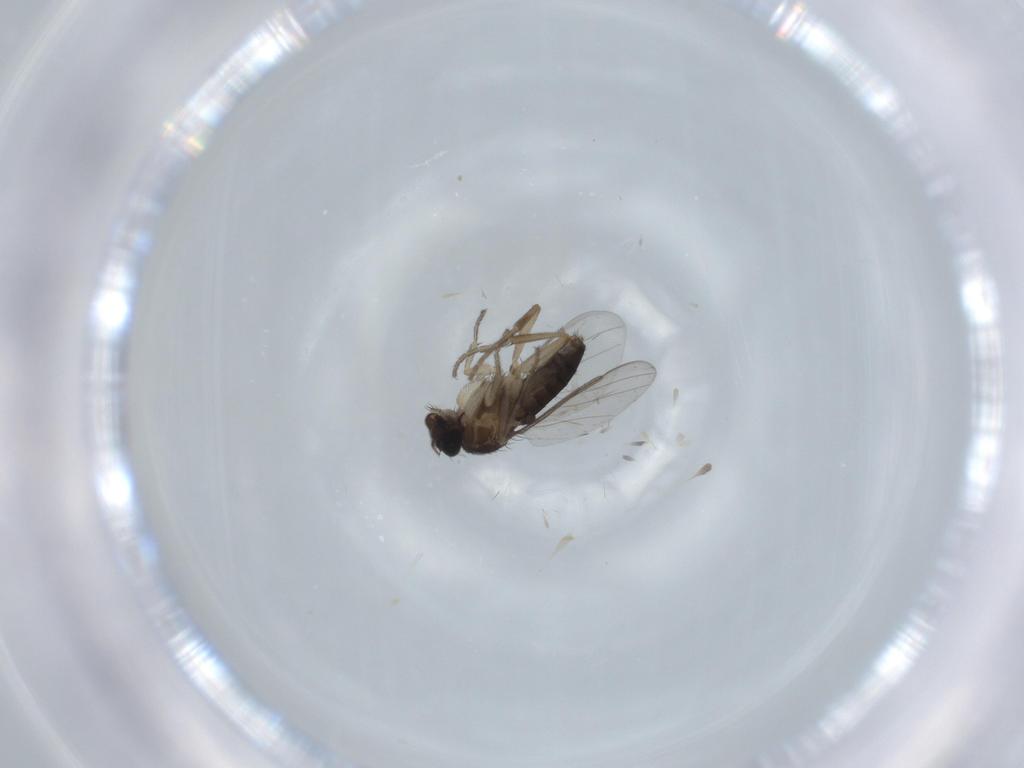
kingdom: Animalia
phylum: Arthropoda
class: Insecta
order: Diptera
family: Phoridae
